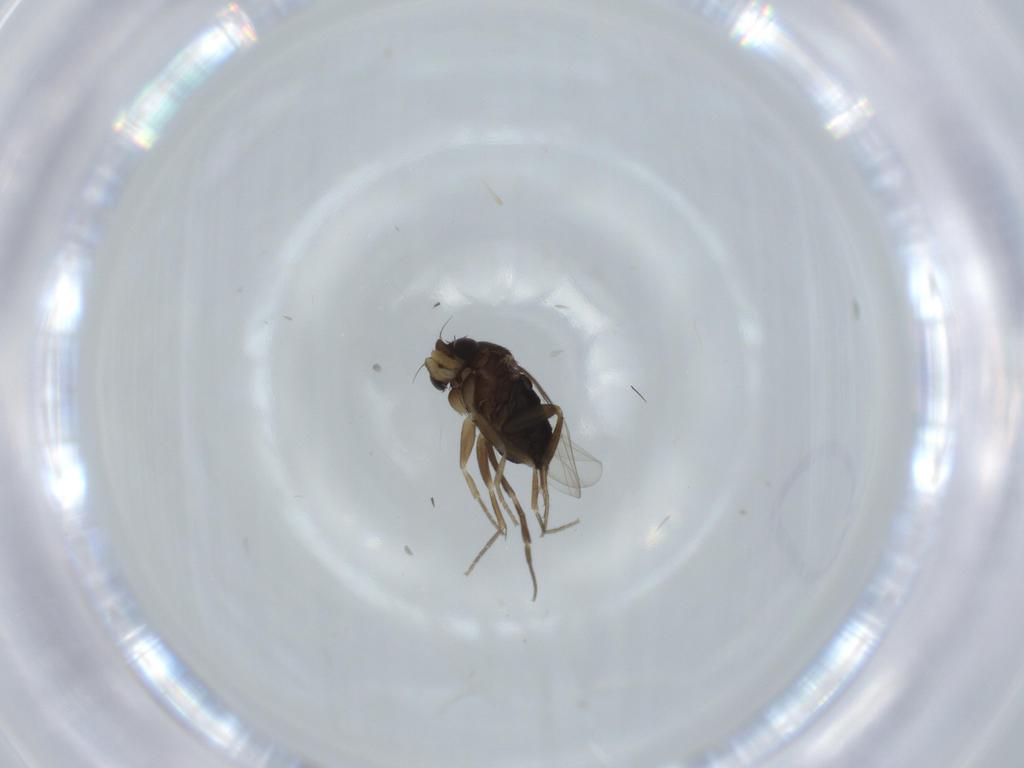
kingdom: Animalia
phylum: Arthropoda
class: Insecta
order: Diptera
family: Phoridae
